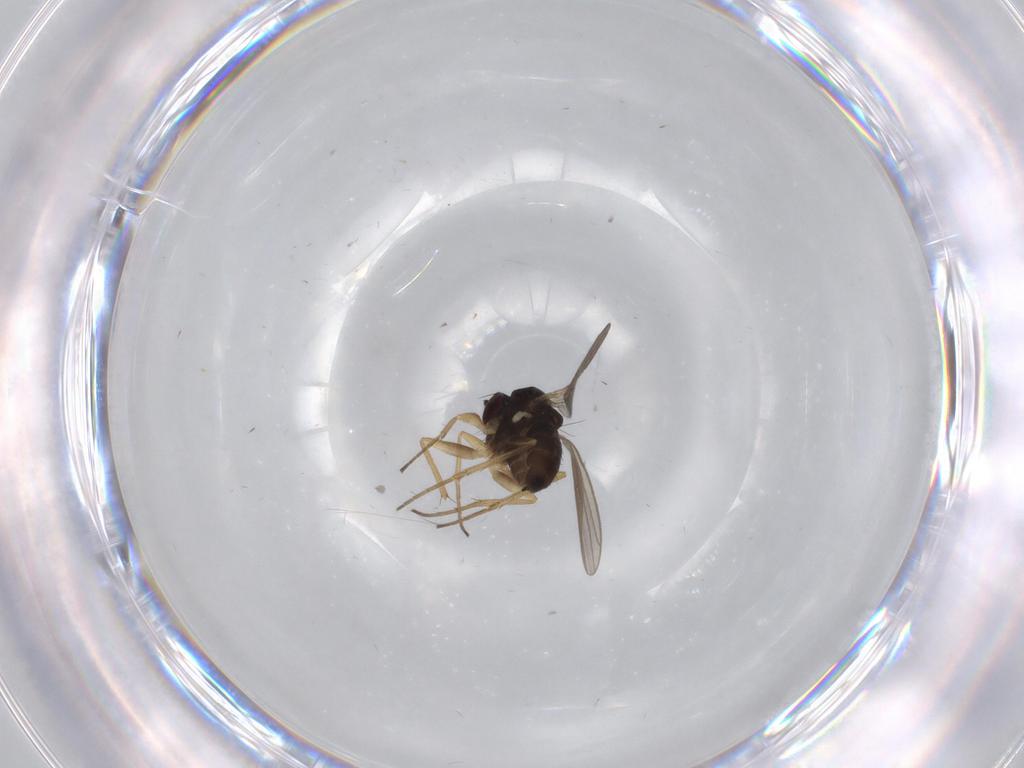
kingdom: Animalia
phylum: Arthropoda
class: Insecta
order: Diptera
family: Dolichopodidae
